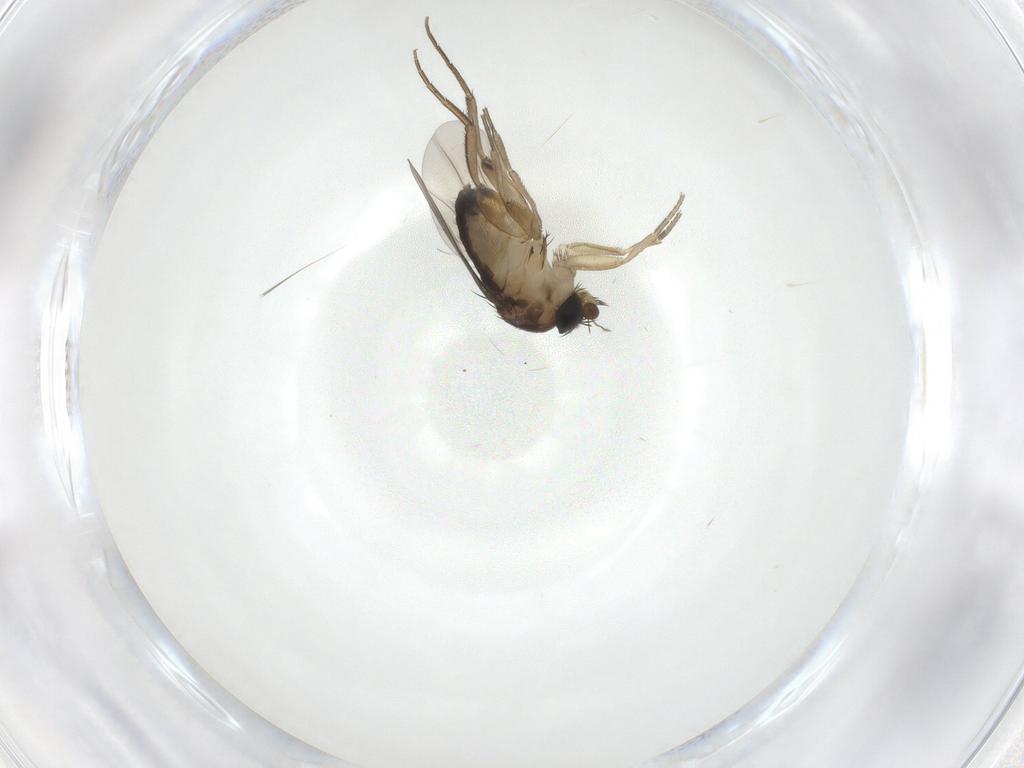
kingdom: Animalia
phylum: Arthropoda
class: Insecta
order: Diptera
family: Phoridae
